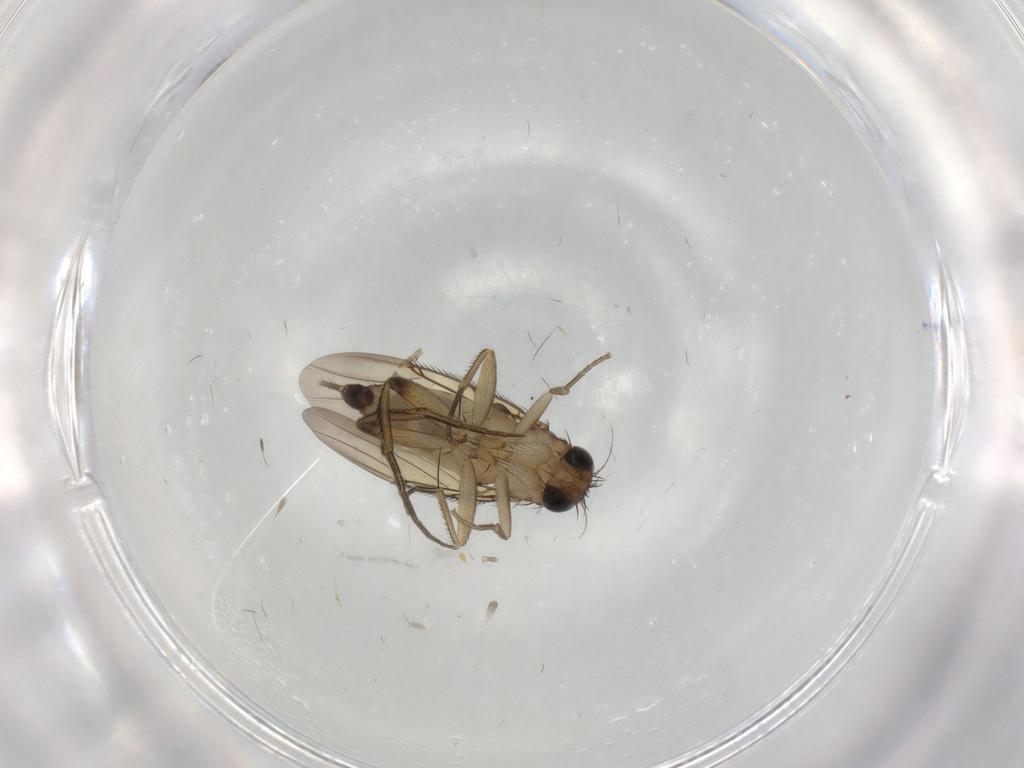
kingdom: Animalia
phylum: Arthropoda
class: Insecta
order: Diptera
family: Phoridae
